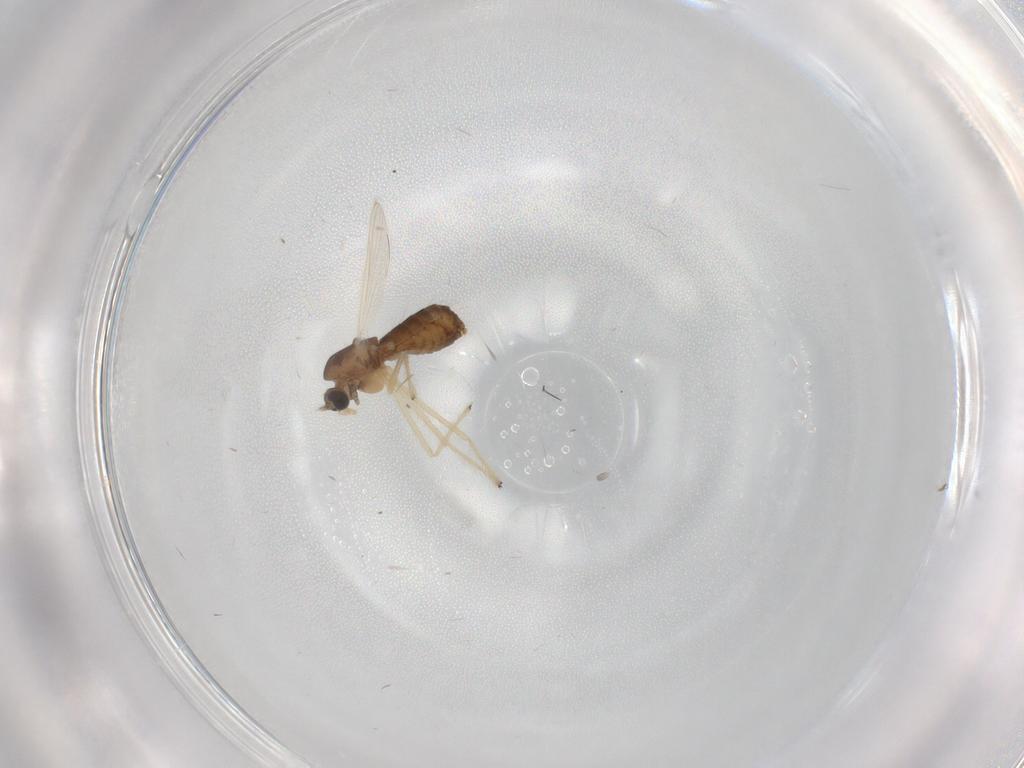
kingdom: Animalia
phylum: Arthropoda
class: Insecta
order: Diptera
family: Chironomidae
